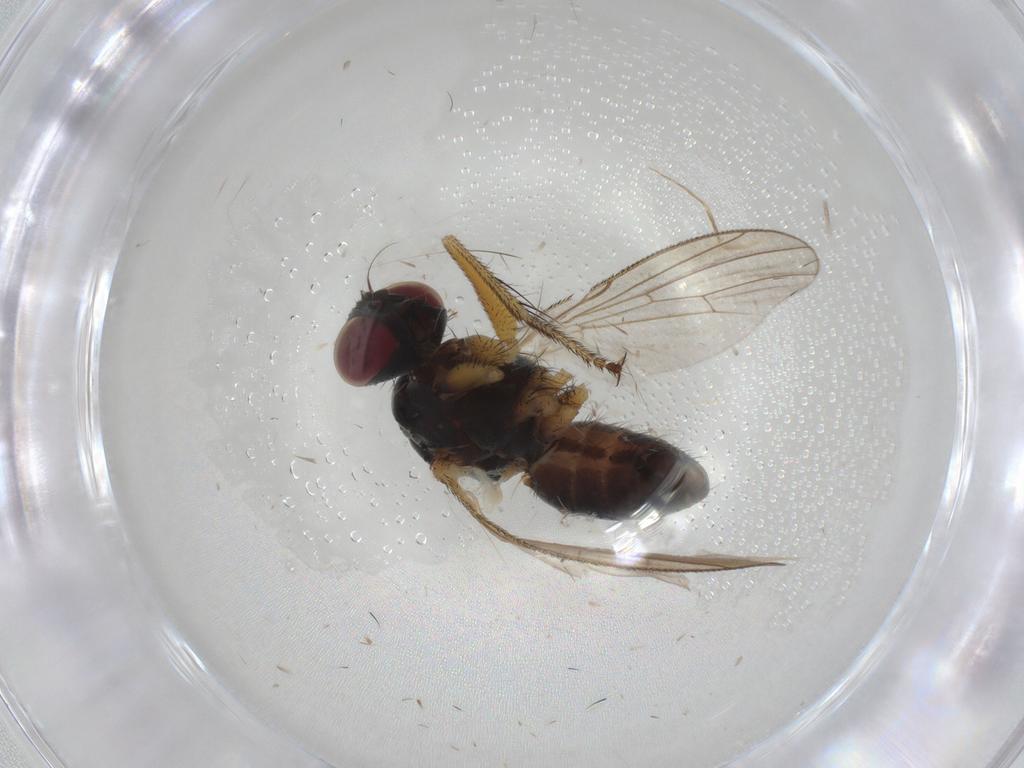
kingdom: Animalia
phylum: Arthropoda
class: Insecta
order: Diptera
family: Muscidae
